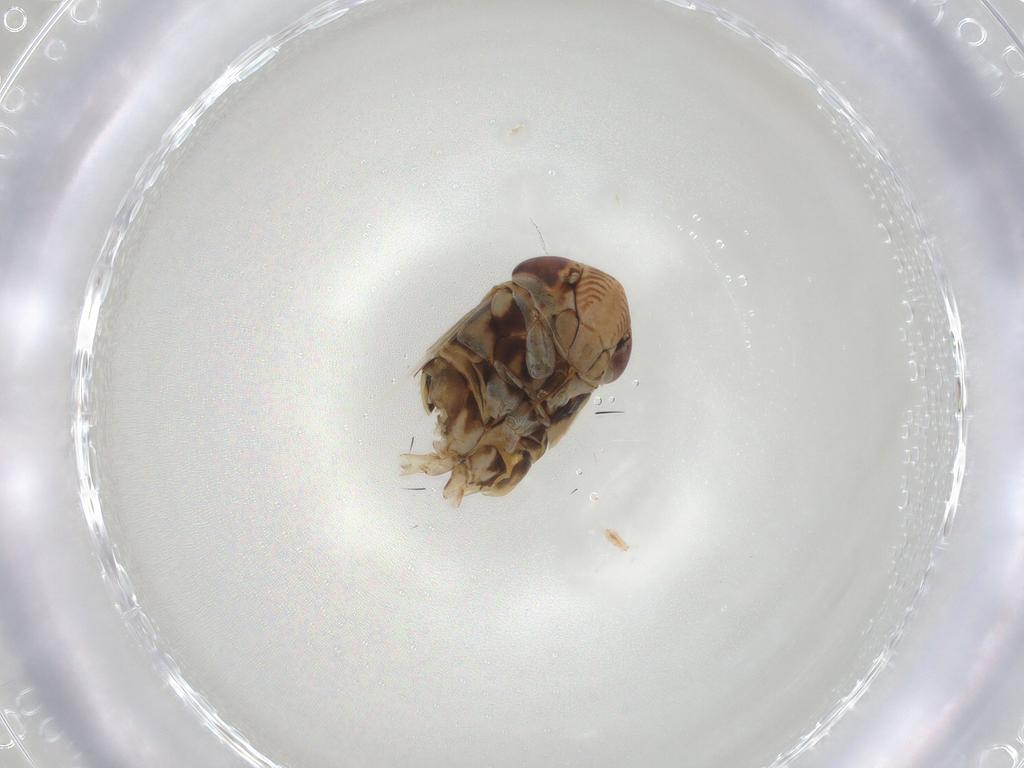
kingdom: Animalia
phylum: Arthropoda
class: Insecta
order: Hemiptera
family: Cicadellidae
